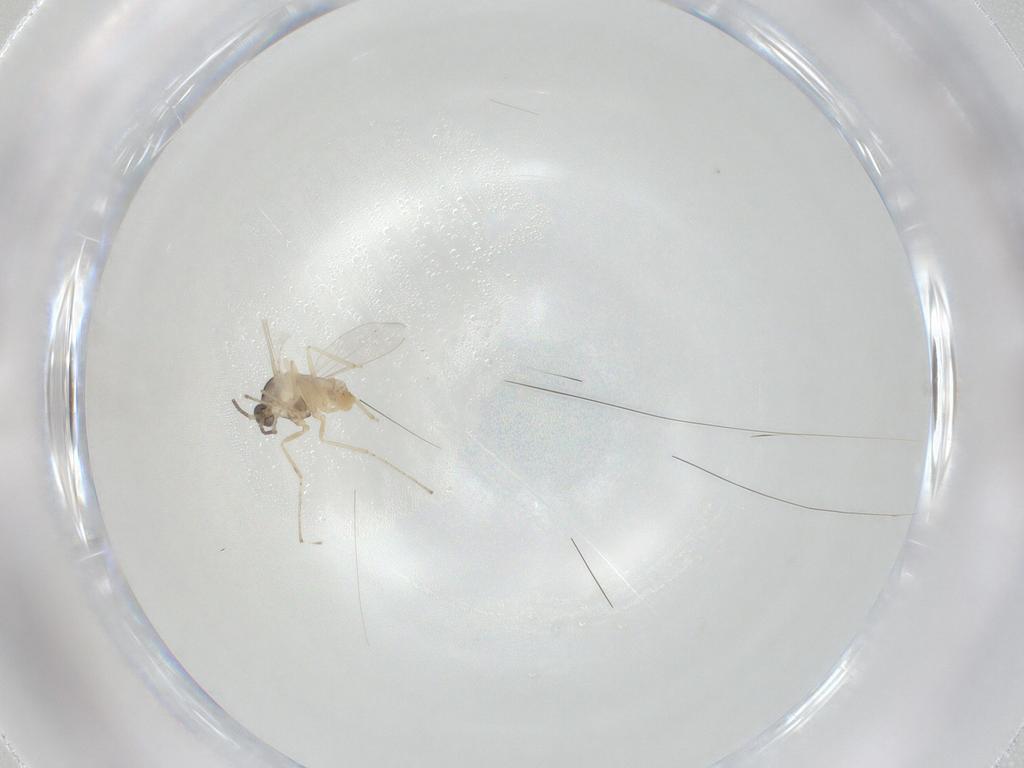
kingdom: Animalia
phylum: Arthropoda
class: Insecta
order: Diptera
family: Cecidomyiidae
